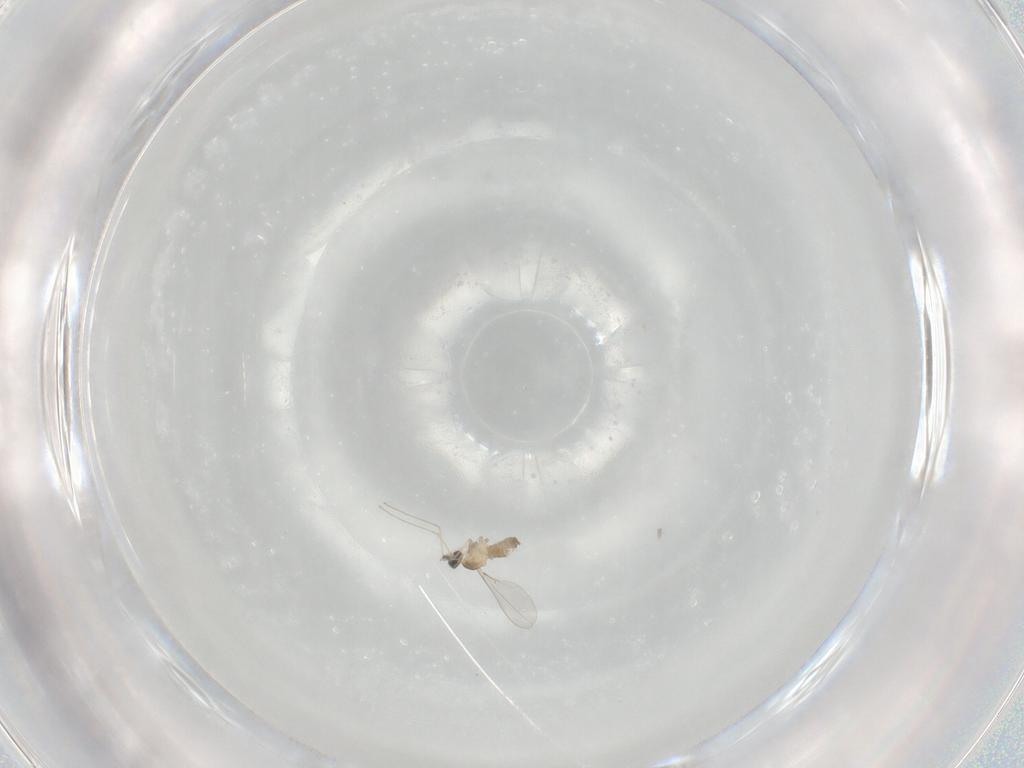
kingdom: Animalia
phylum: Arthropoda
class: Insecta
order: Diptera
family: Cecidomyiidae
